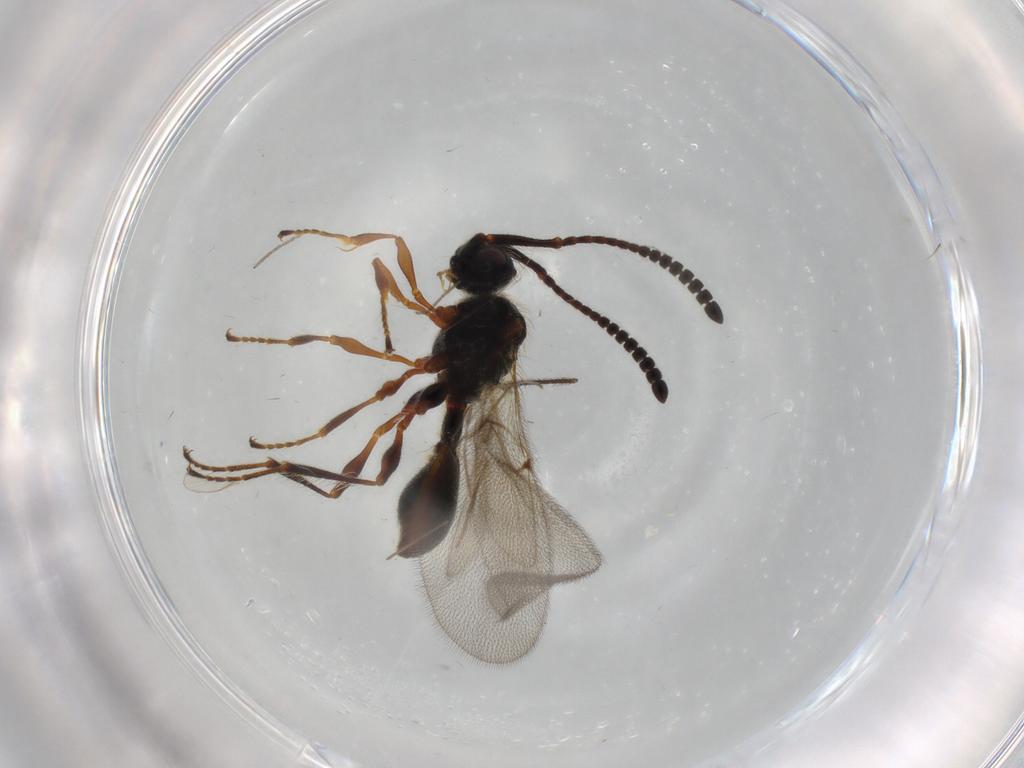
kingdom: Animalia
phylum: Arthropoda
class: Insecta
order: Hymenoptera
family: Diapriidae
